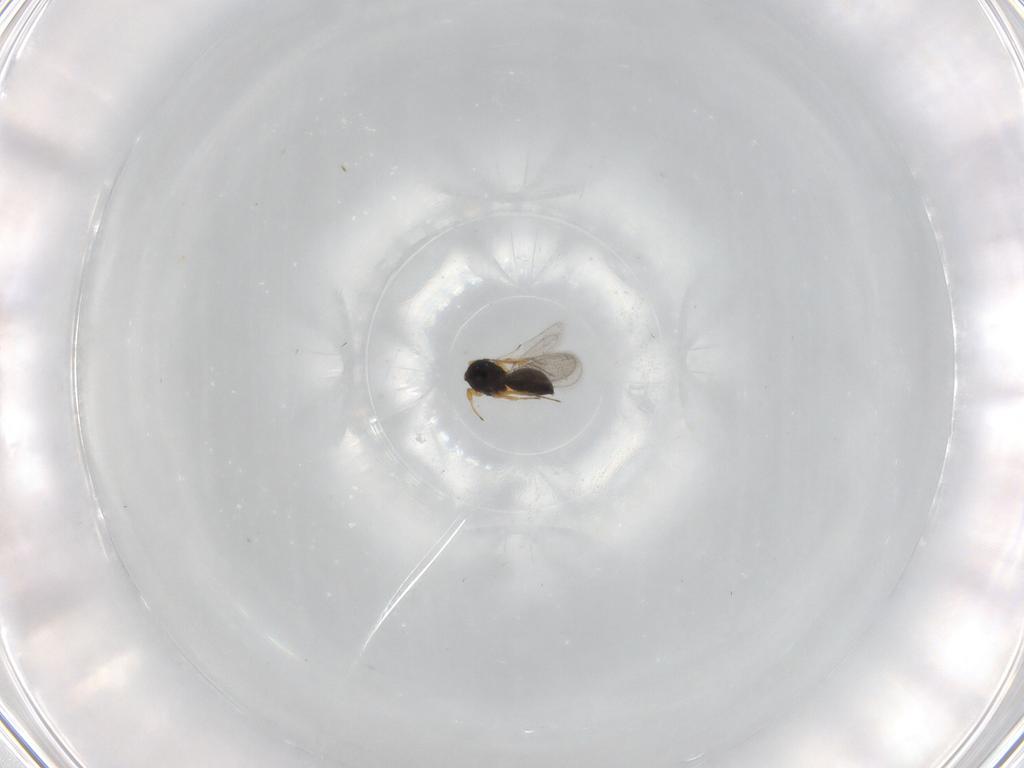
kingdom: Animalia
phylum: Arthropoda
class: Insecta
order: Hymenoptera
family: Scelionidae
